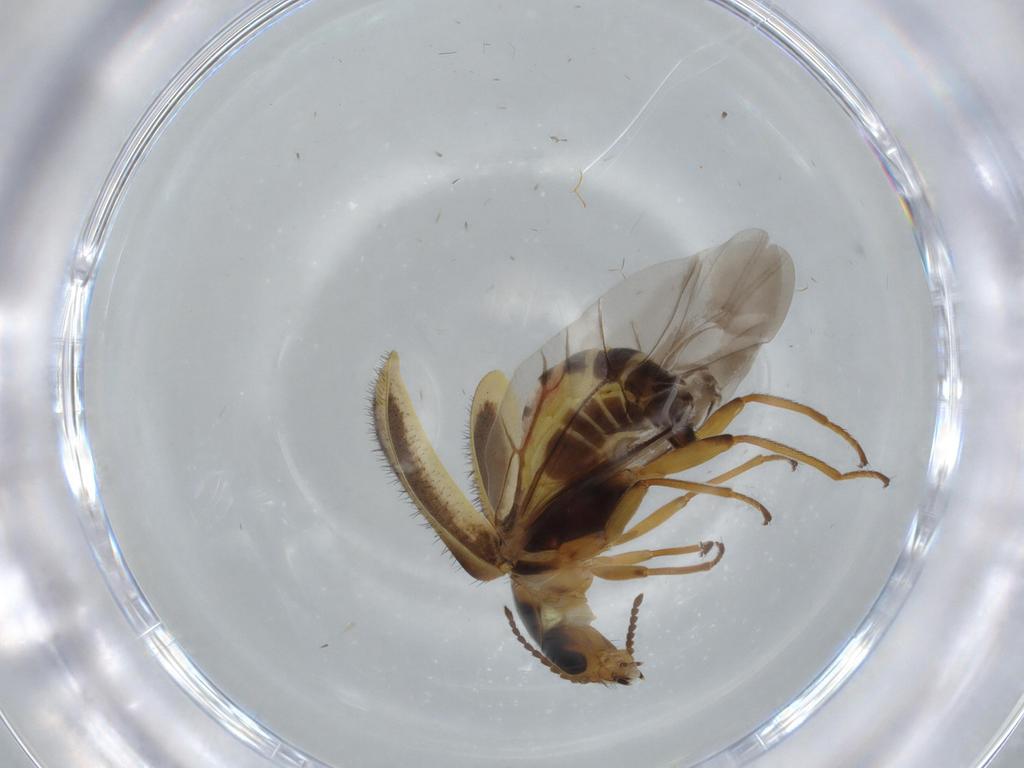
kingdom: Animalia
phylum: Arthropoda
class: Insecta
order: Coleoptera
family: Melyridae
